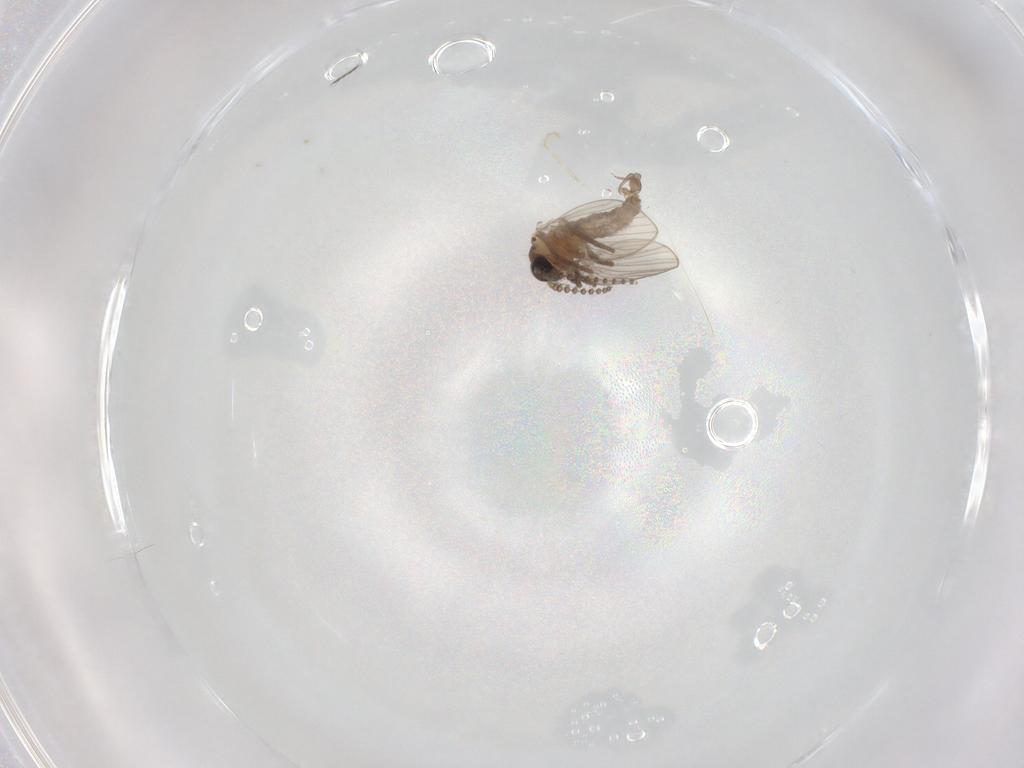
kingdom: Animalia
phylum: Arthropoda
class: Insecta
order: Diptera
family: Psychodidae
